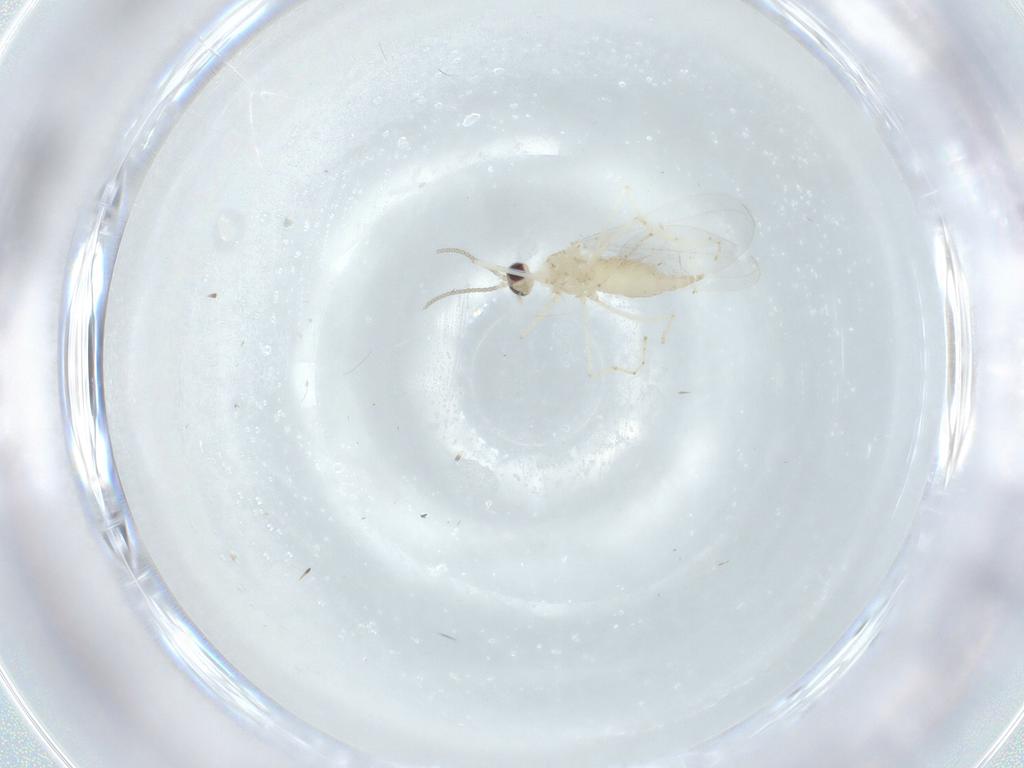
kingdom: Animalia
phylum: Arthropoda
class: Insecta
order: Diptera
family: Cecidomyiidae
